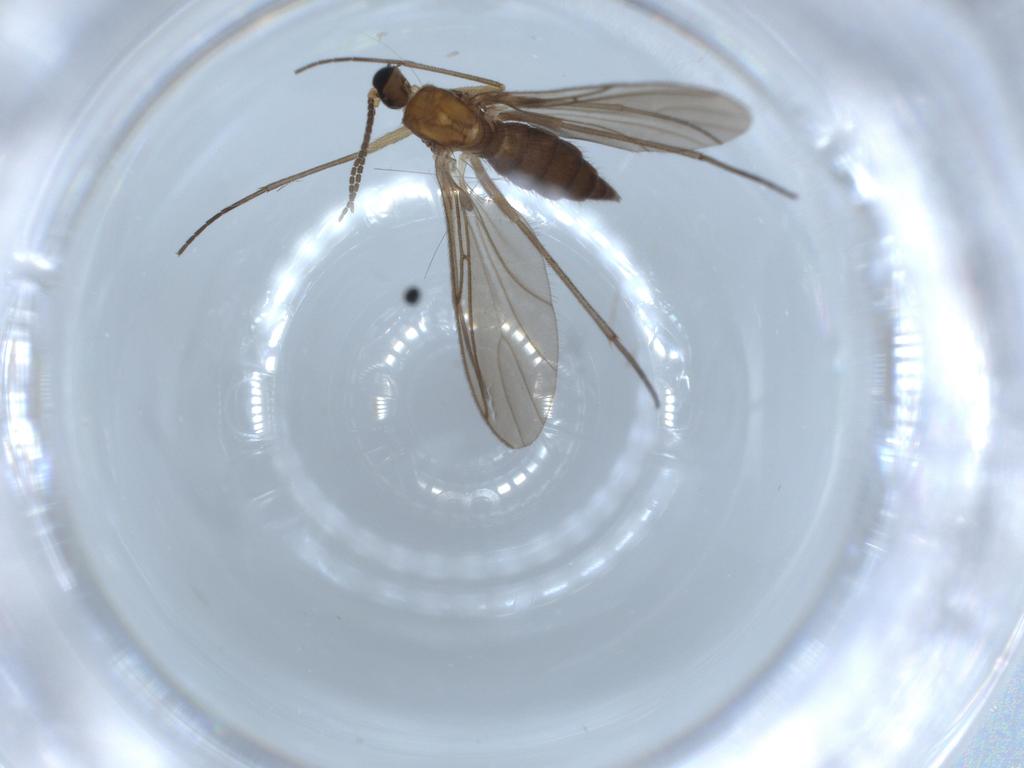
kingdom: Animalia
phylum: Arthropoda
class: Insecta
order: Diptera
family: Sciaridae
